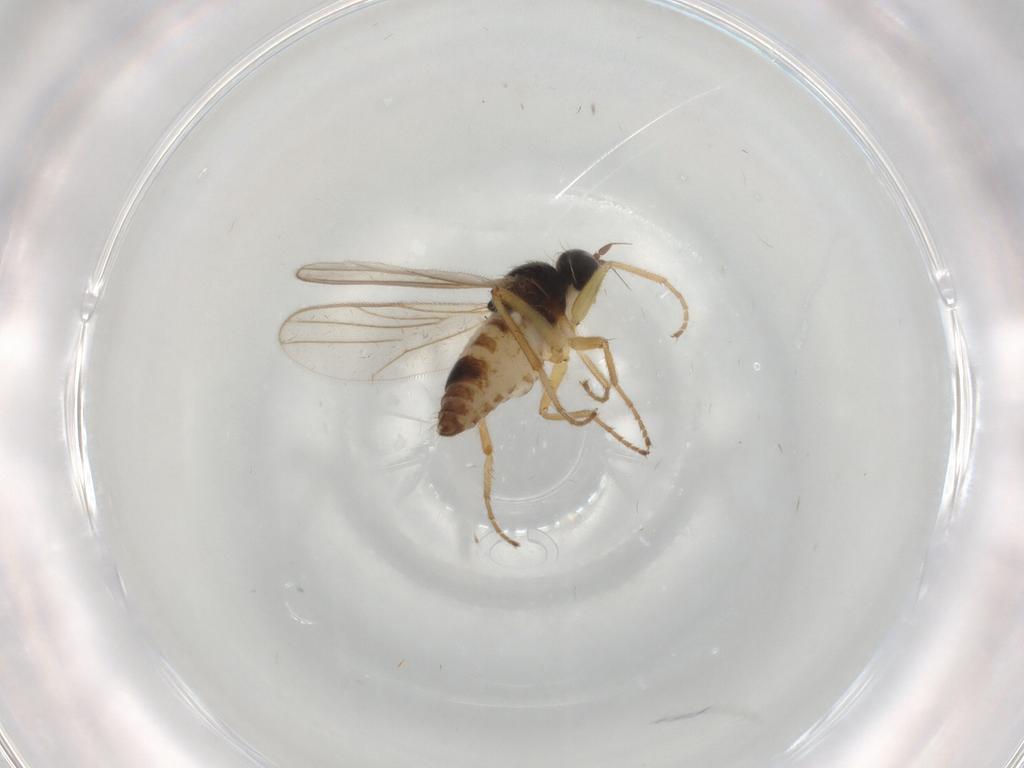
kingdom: Animalia
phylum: Arthropoda
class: Insecta
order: Diptera
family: Hybotidae
